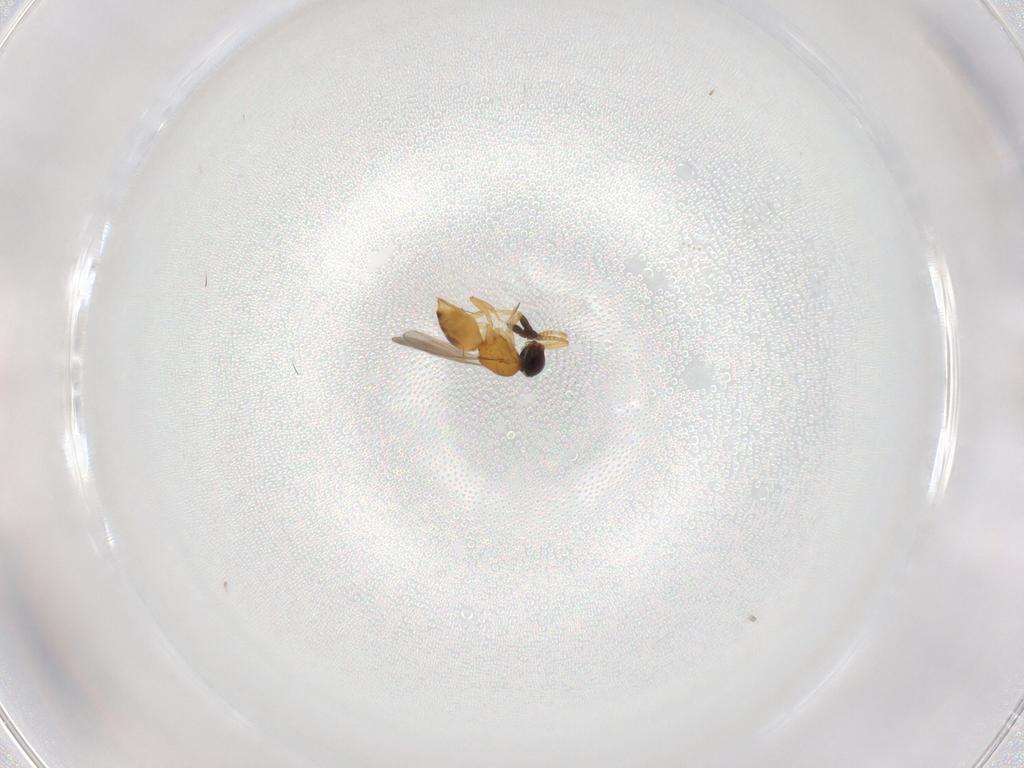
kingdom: Animalia
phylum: Arthropoda
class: Insecta
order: Hymenoptera
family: Ceraphronidae
